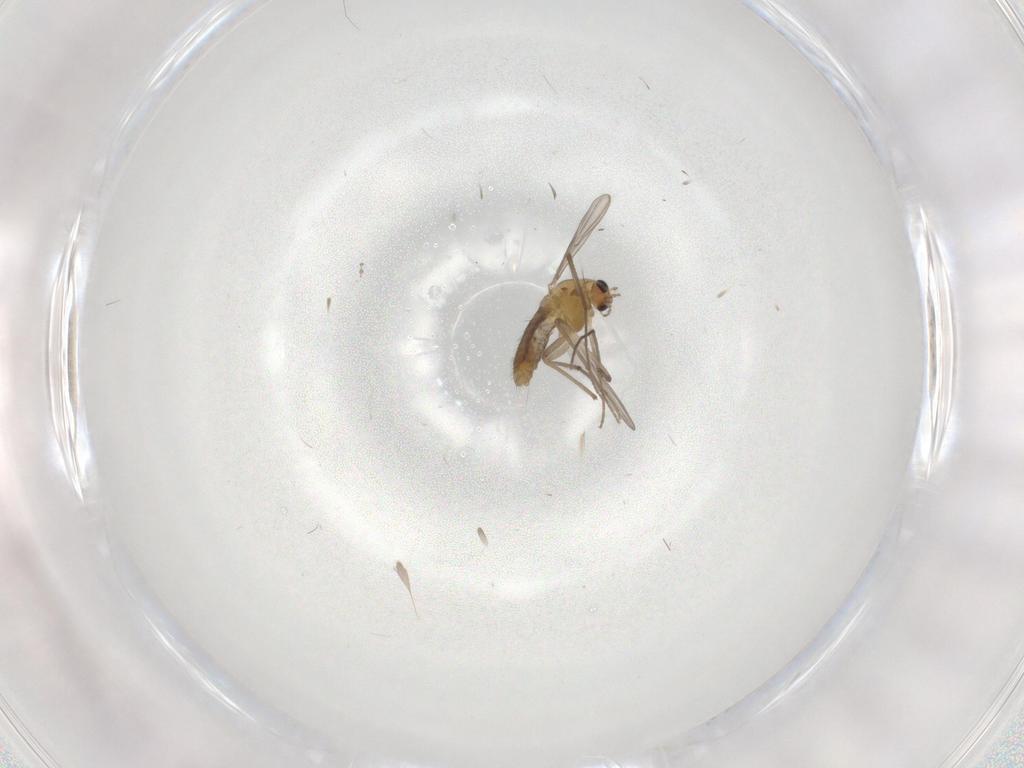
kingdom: Animalia
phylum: Arthropoda
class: Insecta
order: Diptera
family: Chironomidae
